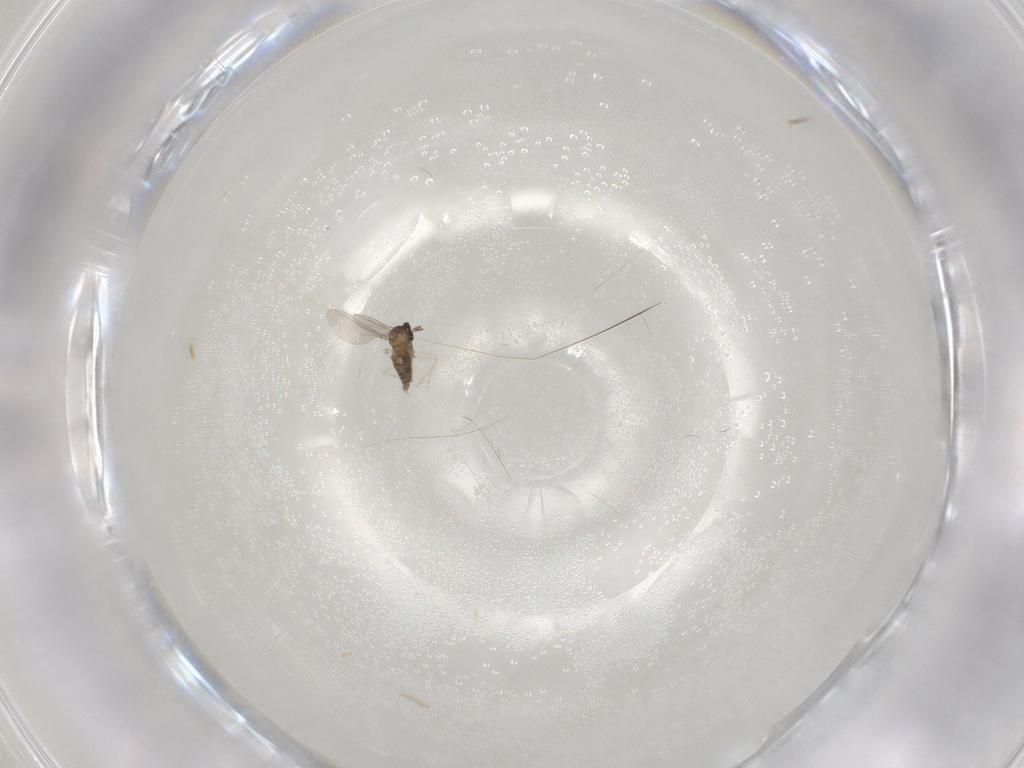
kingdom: Animalia
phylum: Arthropoda
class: Insecta
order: Diptera
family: Cecidomyiidae
